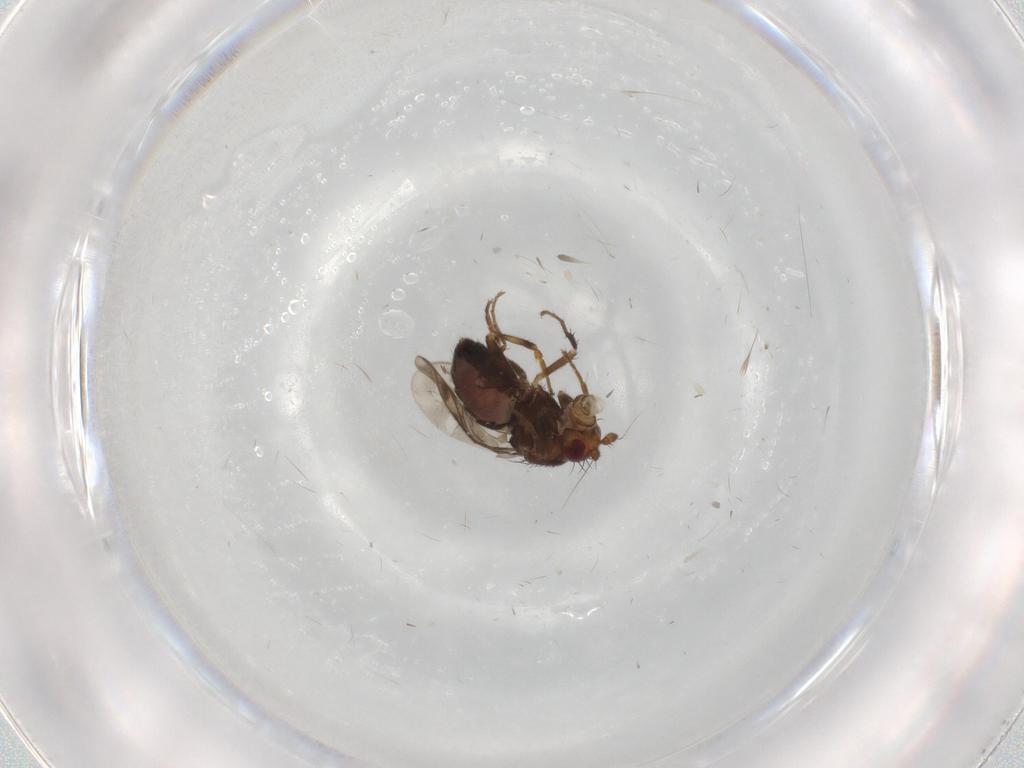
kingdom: Animalia
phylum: Arthropoda
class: Insecta
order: Diptera
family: Sphaeroceridae
